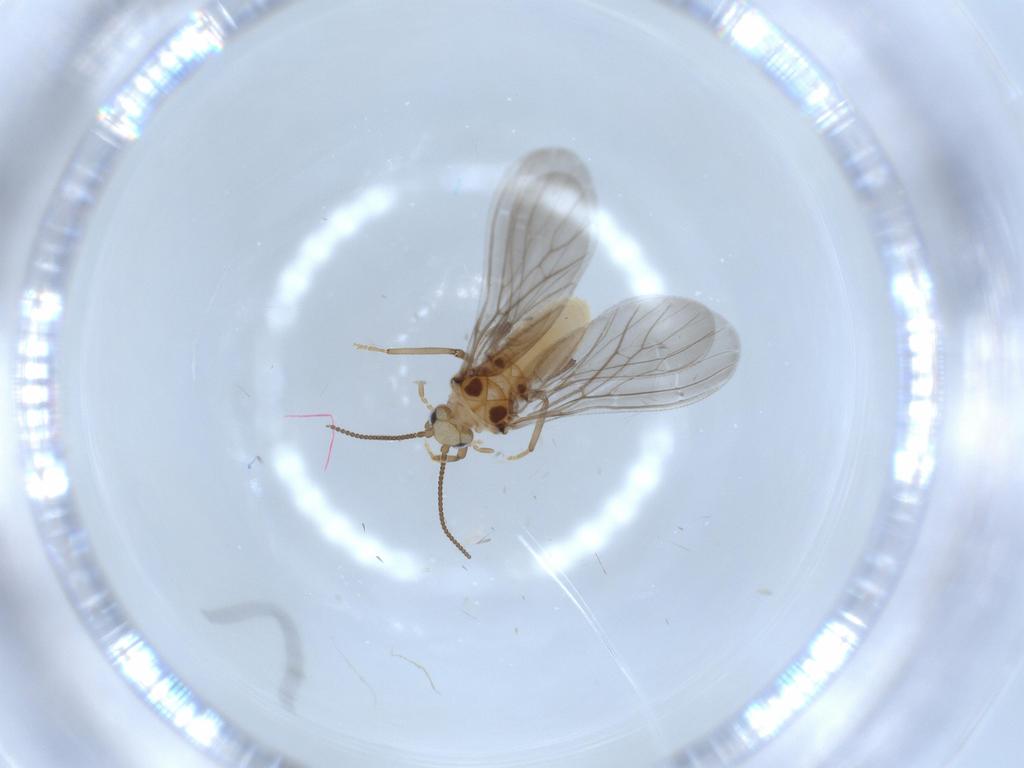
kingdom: Animalia
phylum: Arthropoda
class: Insecta
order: Neuroptera
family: Coniopterygidae
